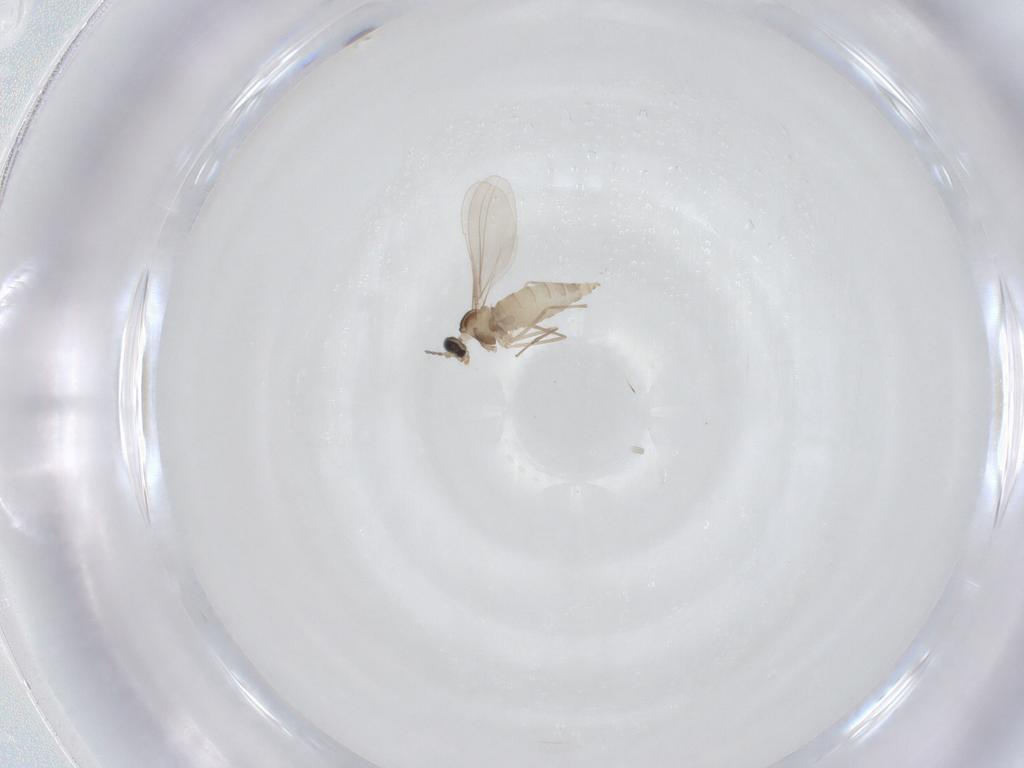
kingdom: Animalia
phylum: Arthropoda
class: Insecta
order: Diptera
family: Cecidomyiidae
